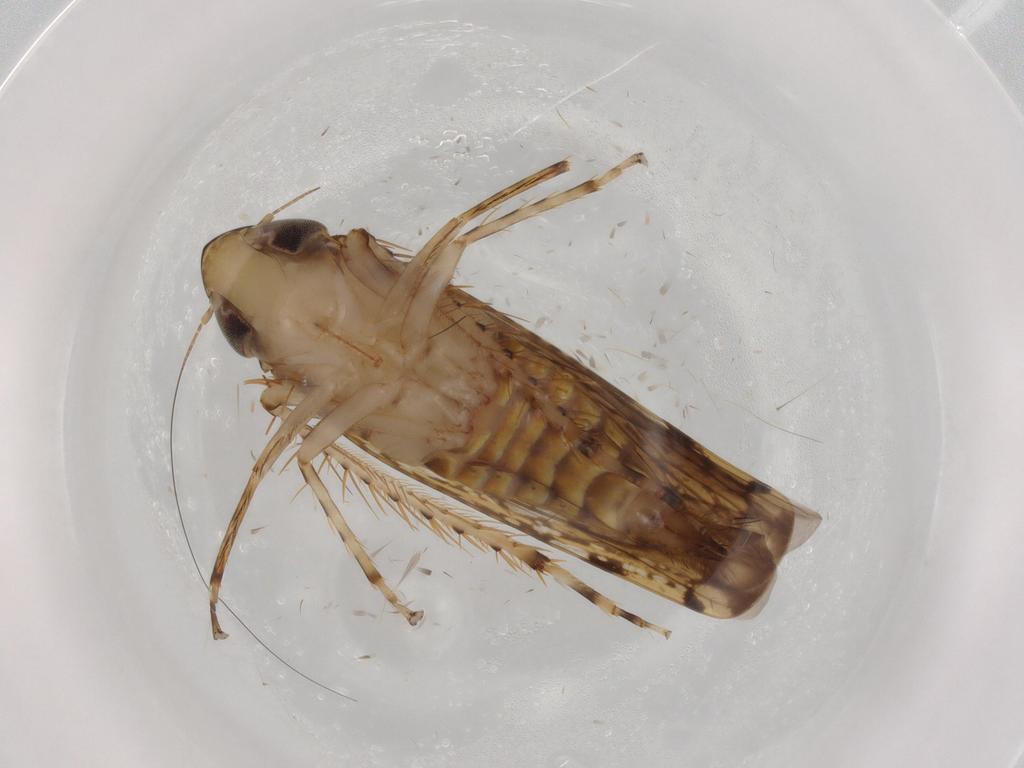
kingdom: Animalia
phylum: Arthropoda
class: Insecta
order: Hemiptera
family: Cicadellidae
